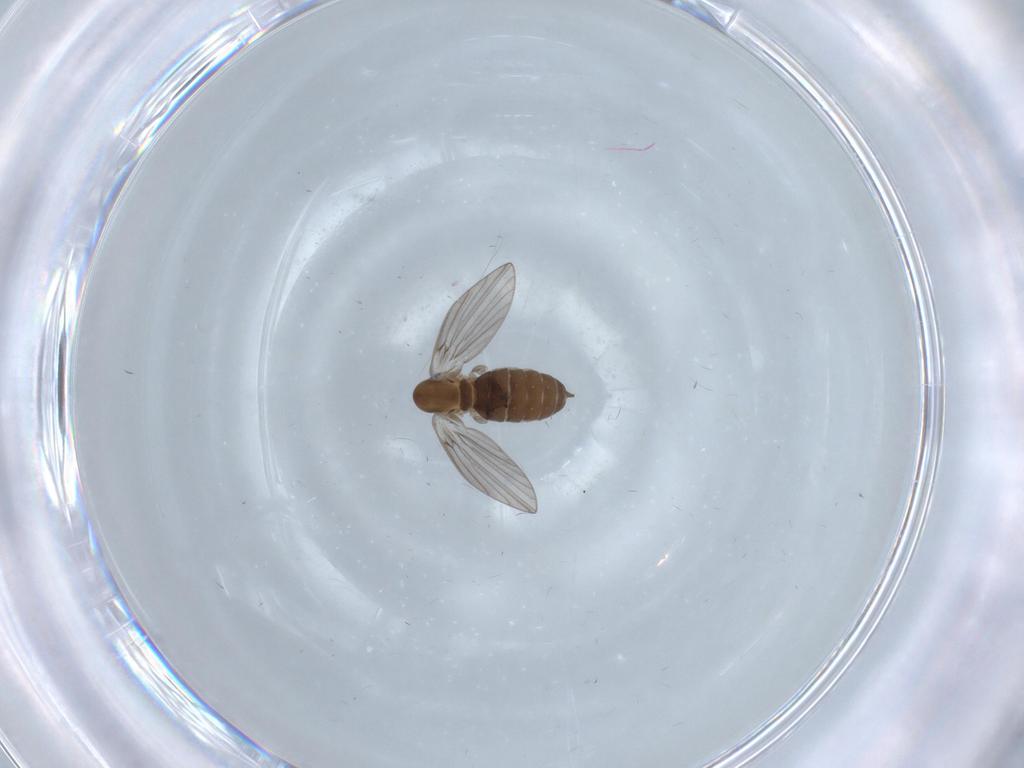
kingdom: Animalia
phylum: Arthropoda
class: Insecta
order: Diptera
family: Psychodidae
